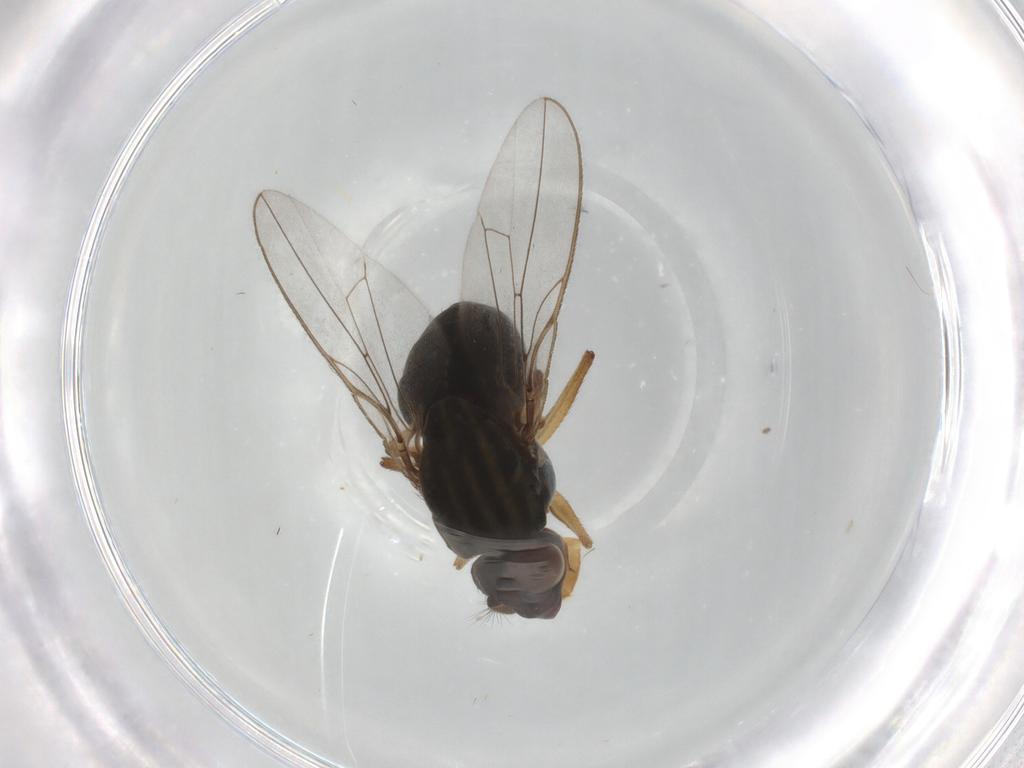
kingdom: Animalia
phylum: Arthropoda
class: Insecta
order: Diptera
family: Ephydridae
